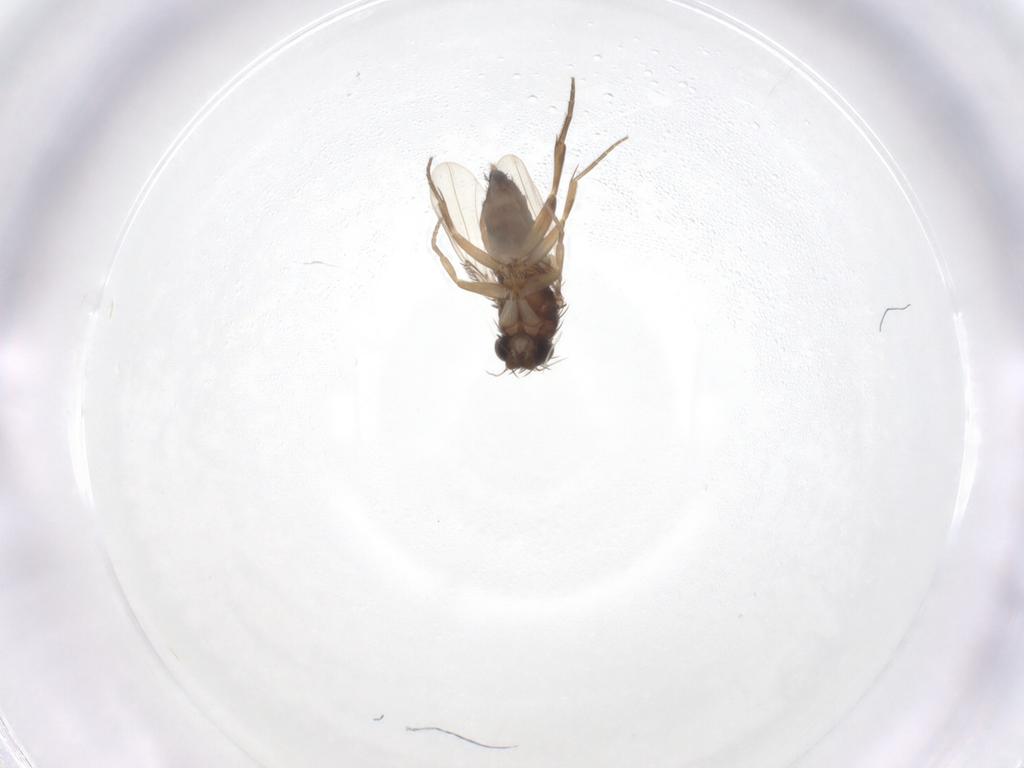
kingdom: Animalia
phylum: Arthropoda
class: Insecta
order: Diptera
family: Phoridae
